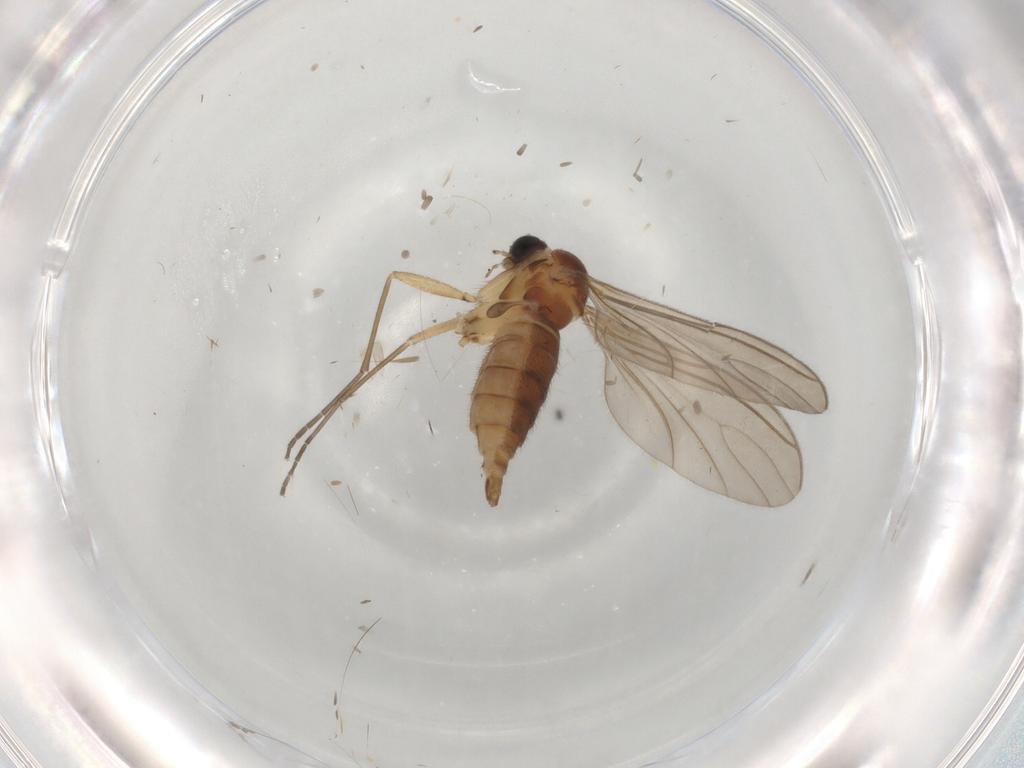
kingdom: Animalia
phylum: Arthropoda
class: Insecta
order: Diptera
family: Sciaridae
